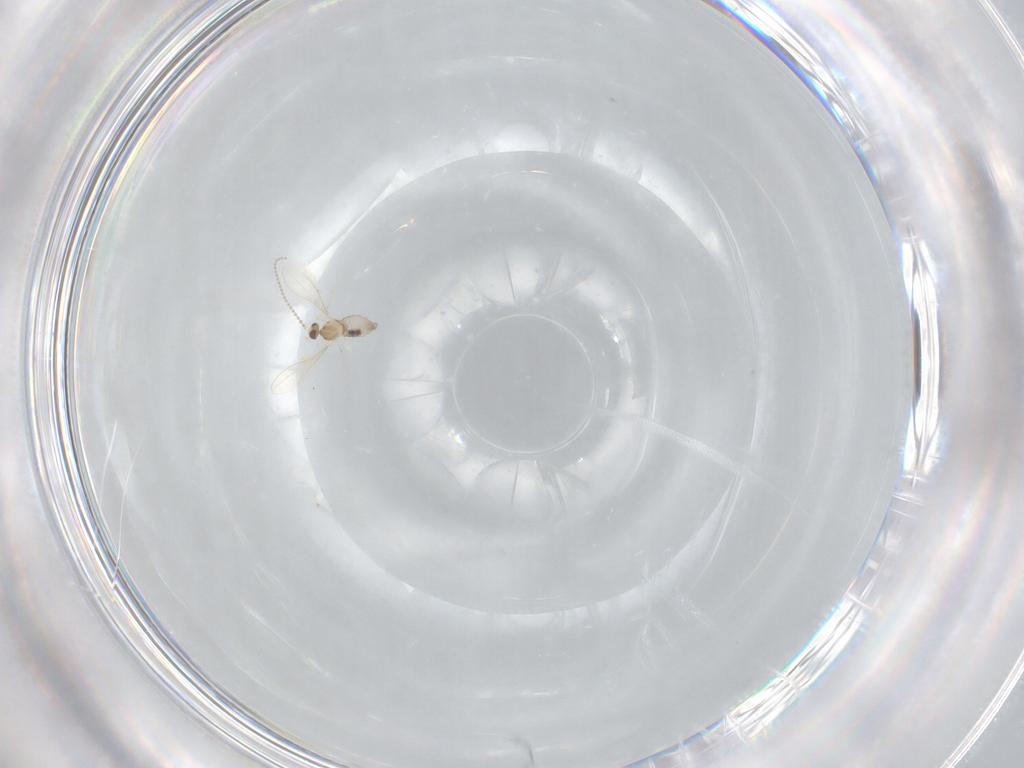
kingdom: Animalia
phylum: Arthropoda
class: Insecta
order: Diptera
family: Cecidomyiidae
